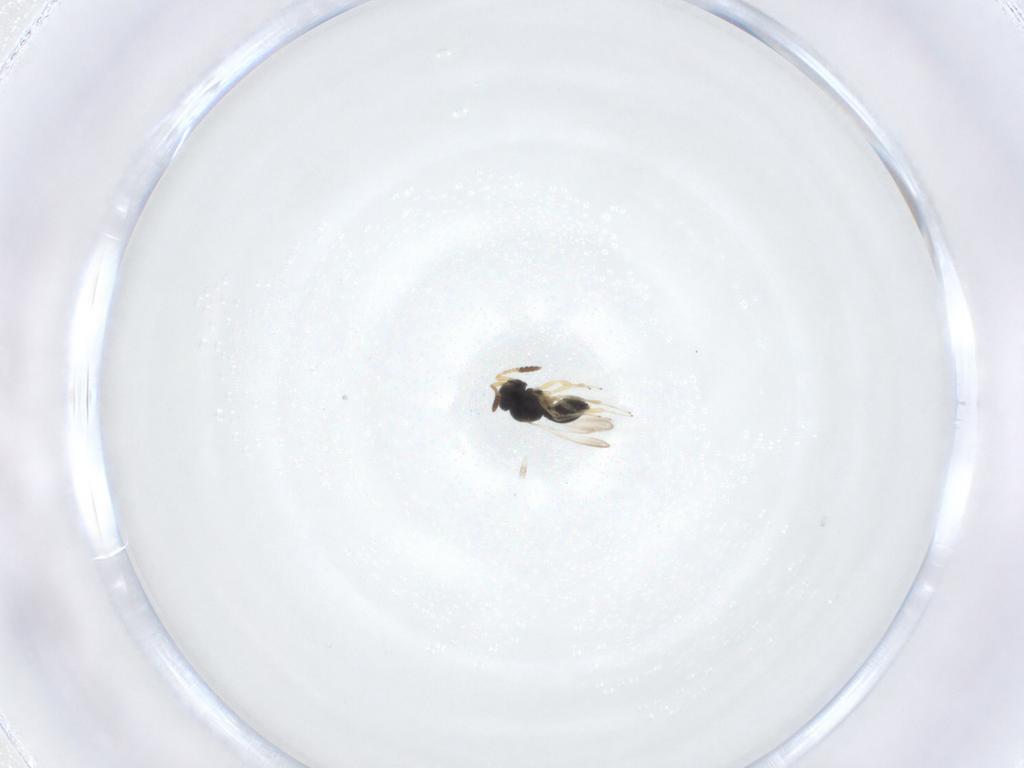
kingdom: Animalia
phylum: Arthropoda
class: Insecta
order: Hymenoptera
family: Scelionidae
